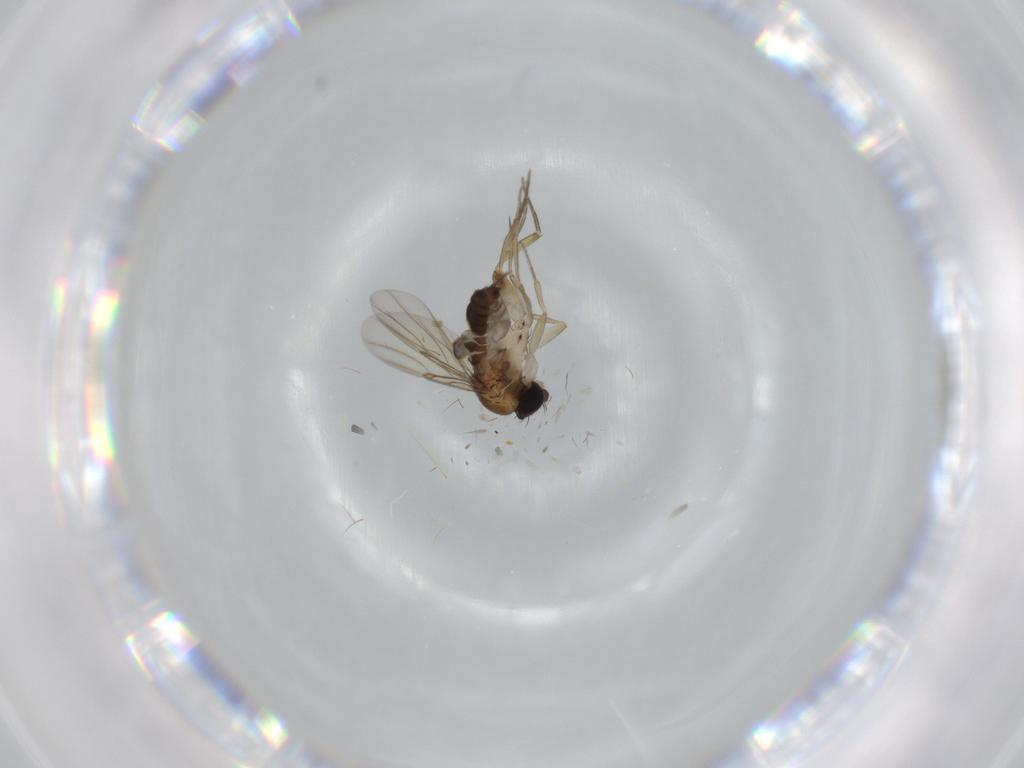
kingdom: Animalia
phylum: Arthropoda
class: Insecta
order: Diptera
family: Phoridae
